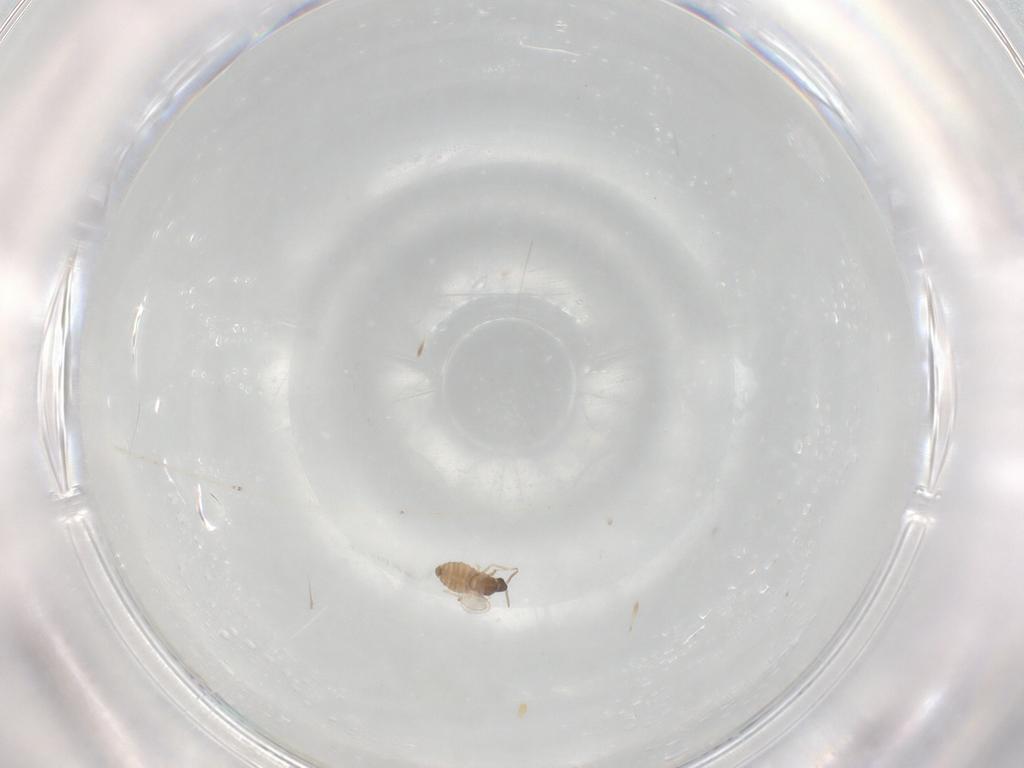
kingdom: Animalia
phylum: Arthropoda
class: Insecta
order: Diptera
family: Cecidomyiidae
